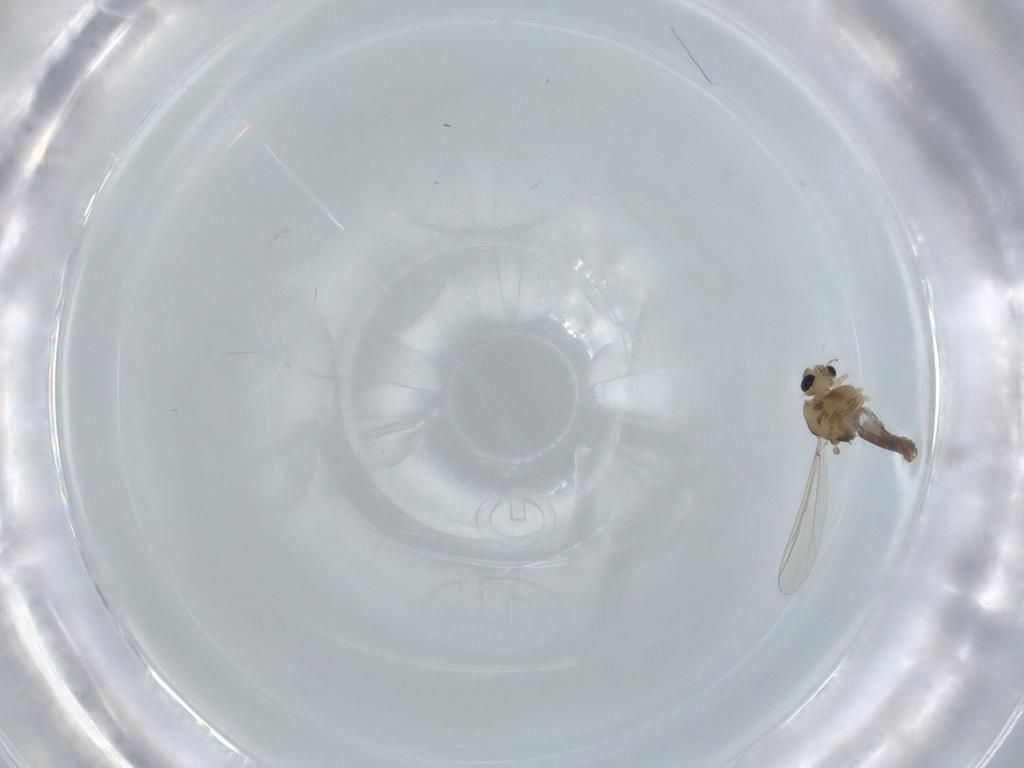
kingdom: Animalia
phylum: Arthropoda
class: Insecta
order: Diptera
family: Chironomidae
